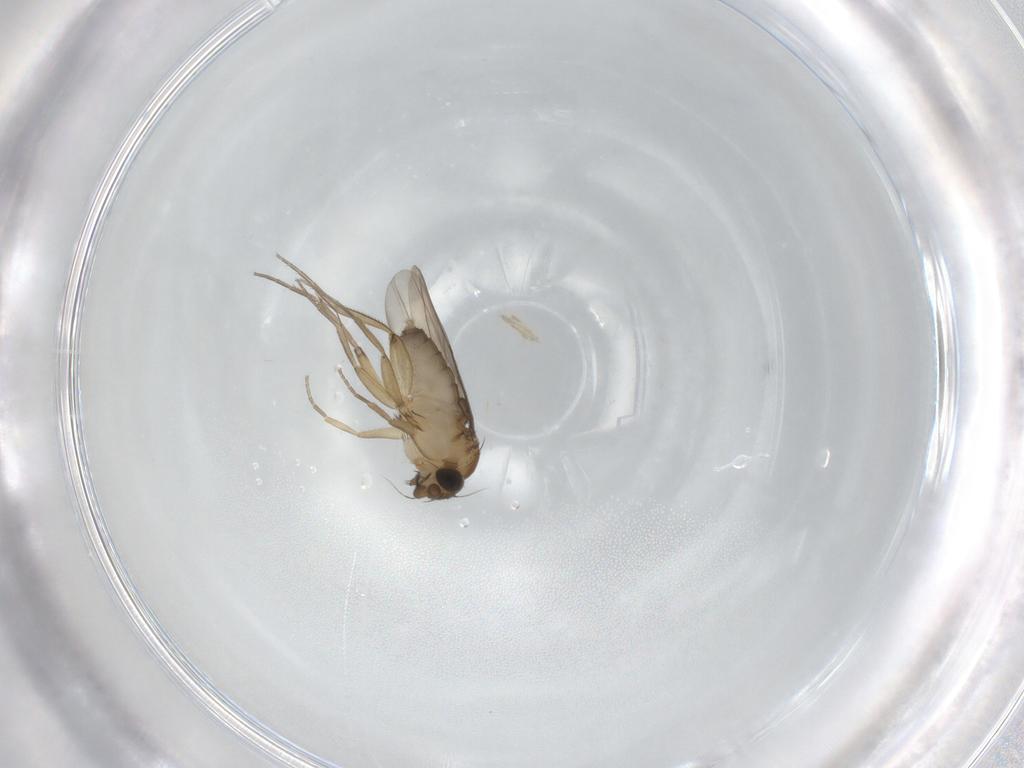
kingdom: Animalia
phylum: Arthropoda
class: Insecta
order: Diptera
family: Phoridae
